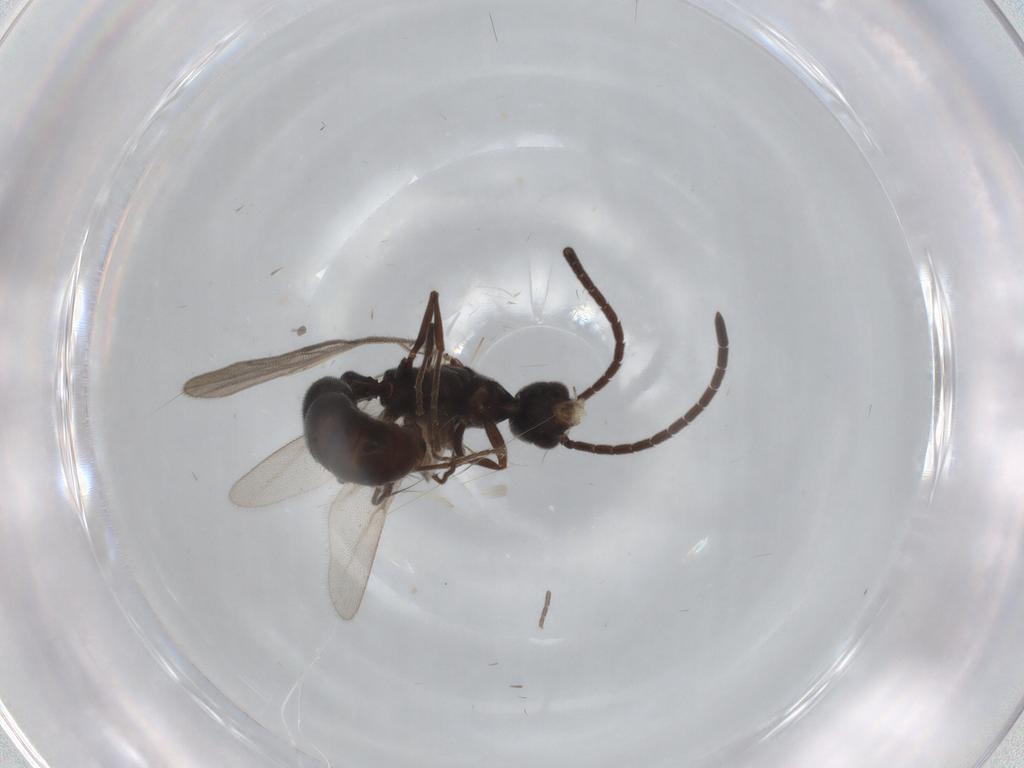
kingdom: Animalia
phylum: Arthropoda
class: Insecta
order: Hymenoptera
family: Formicidae
